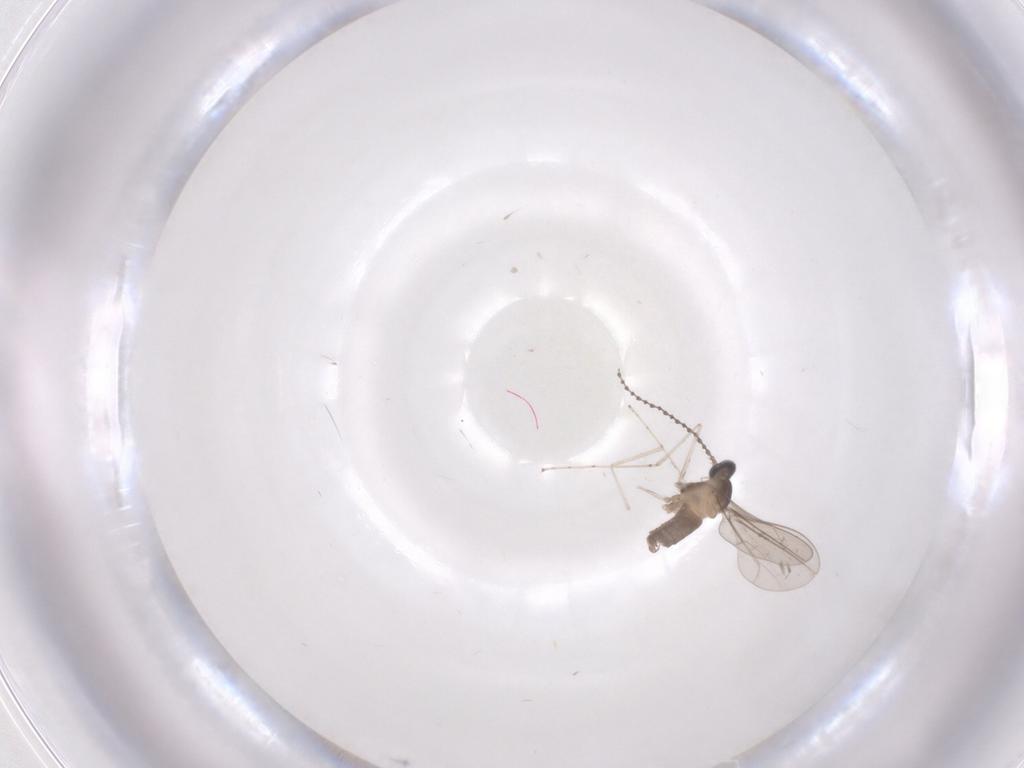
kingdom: Animalia
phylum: Arthropoda
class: Insecta
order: Diptera
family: Cecidomyiidae
